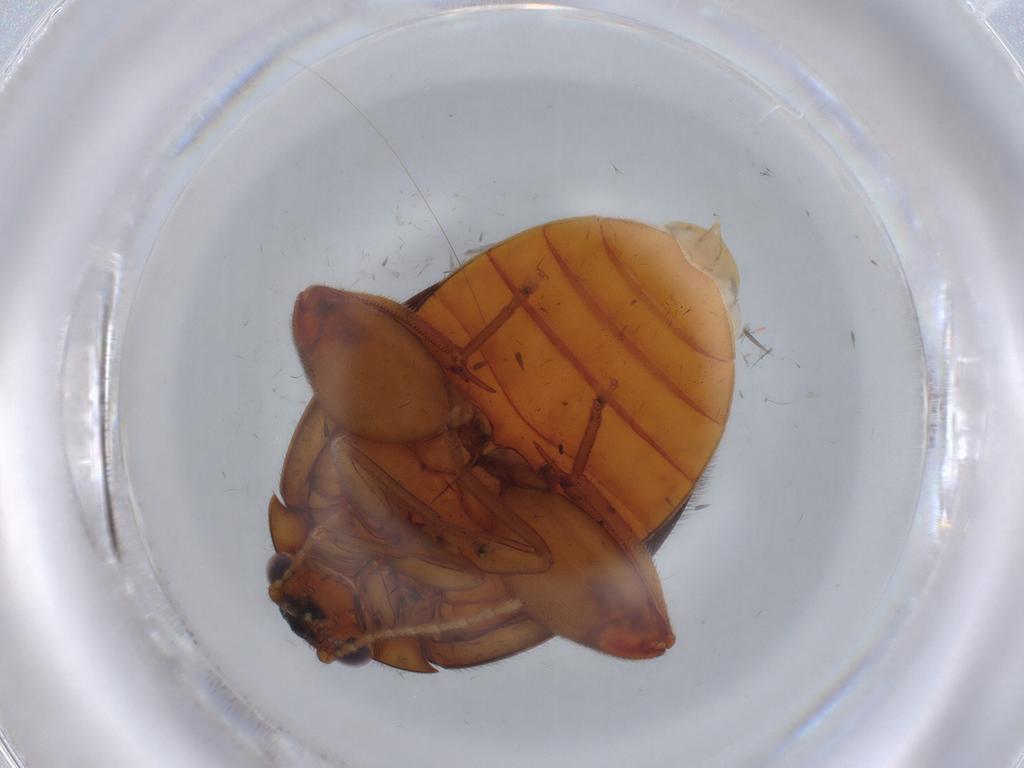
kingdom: Animalia
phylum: Arthropoda
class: Insecta
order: Coleoptera
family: Scirtidae
